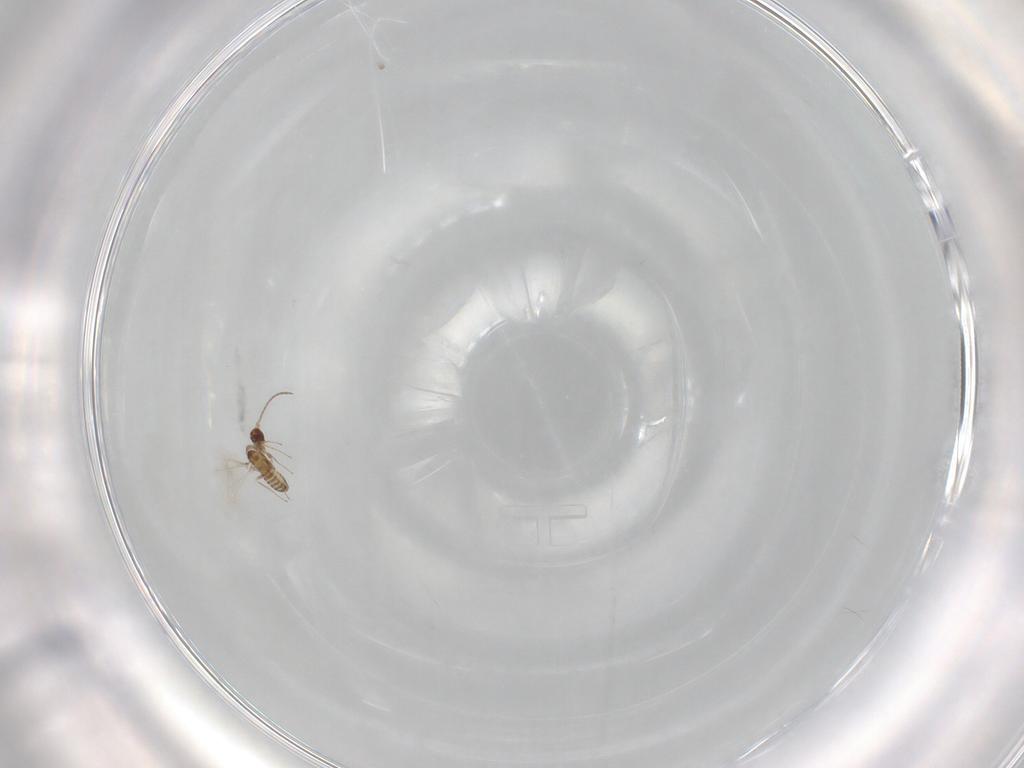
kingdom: Animalia
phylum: Arthropoda
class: Insecta
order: Hymenoptera
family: Mymaridae
